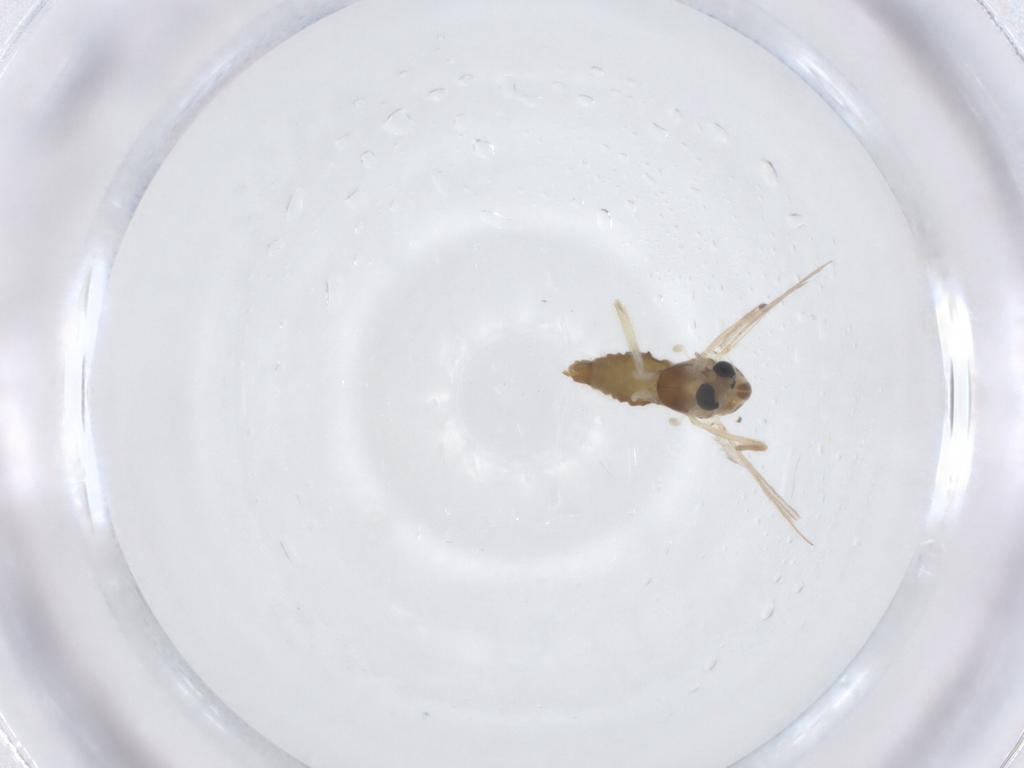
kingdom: Animalia
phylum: Arthropoda
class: Insecta
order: Diptera
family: Chironomidae
